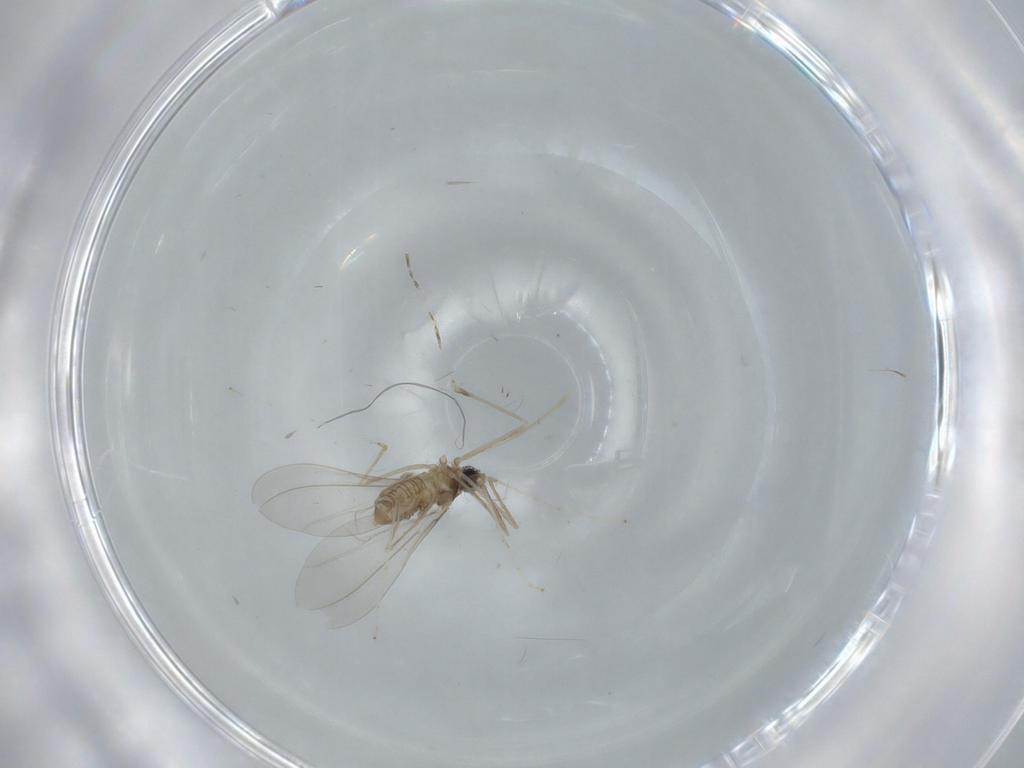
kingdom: Animalia
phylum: Arthropoda
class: Insecta
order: Diptera
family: Cecidomyiidae
